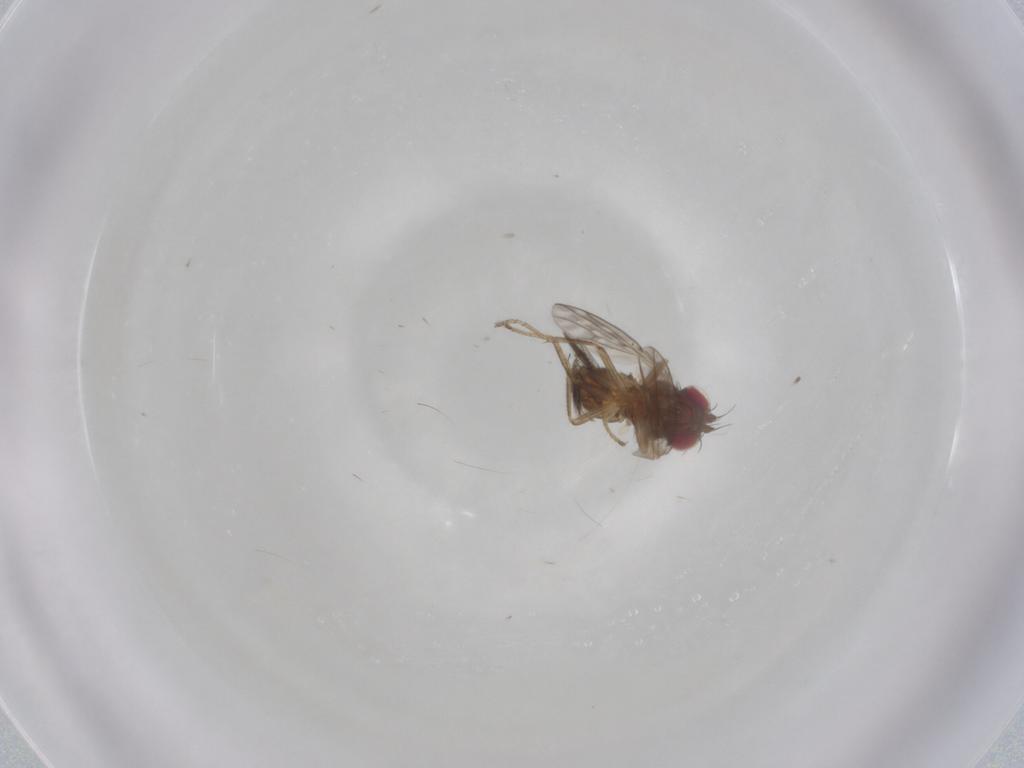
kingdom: Animalia
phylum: Arthropoda
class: Insecta
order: Diptera
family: Ephydridae
